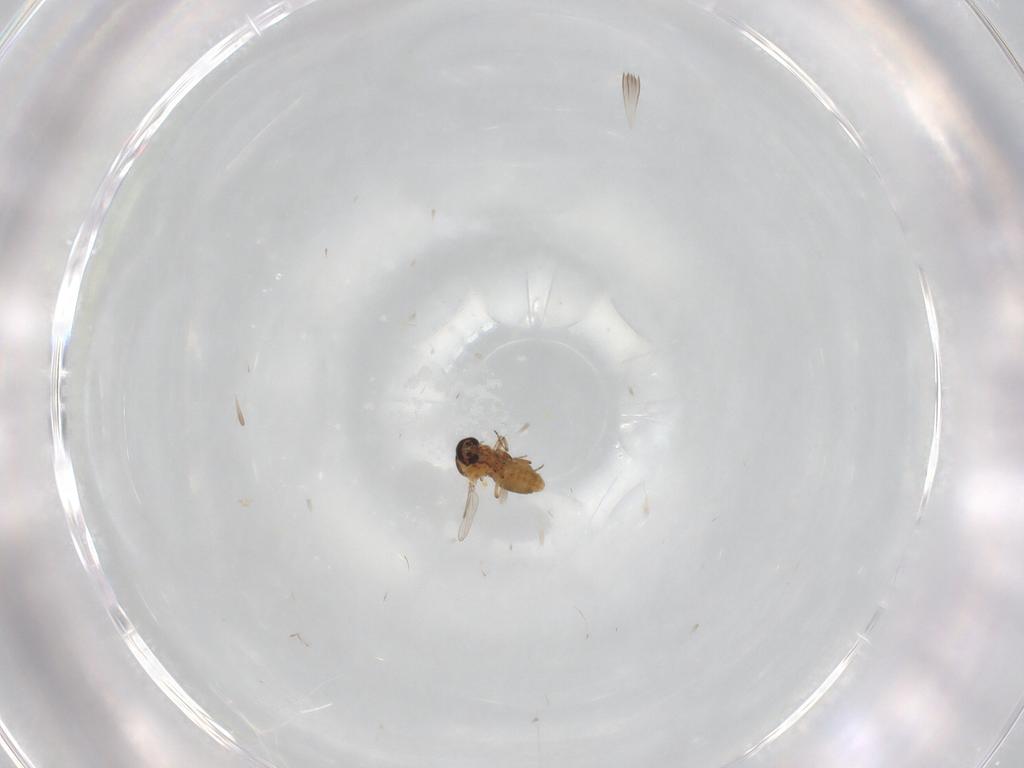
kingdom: Animalia
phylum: Arthropoda
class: Insecta
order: Diptera
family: Ceratopogonidae
